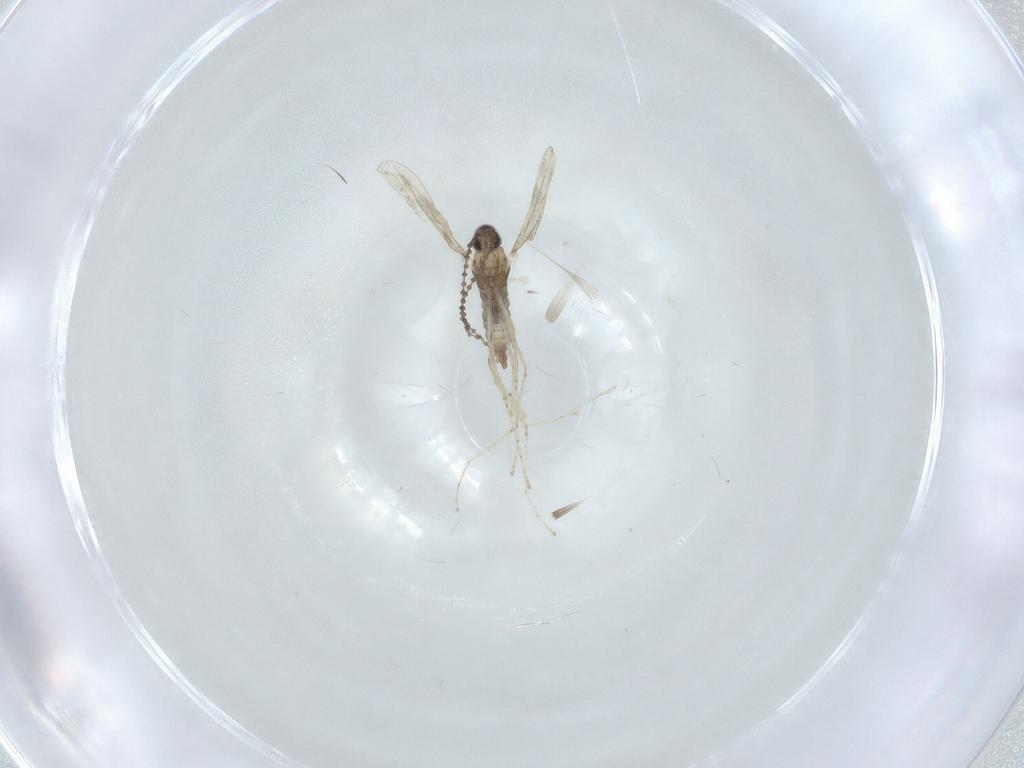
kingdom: Animalia
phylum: Arthropoda
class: Insecta
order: Diptera
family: Cecidomyiidae
